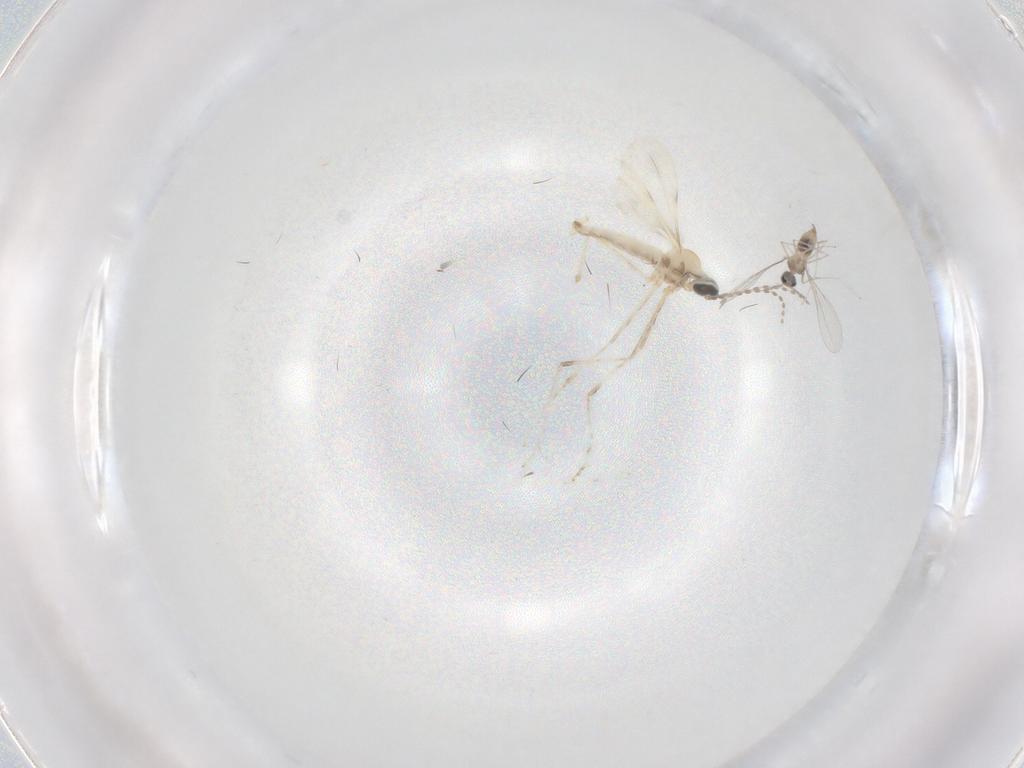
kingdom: Animalia
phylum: Arthropoda
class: Insecta
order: Diptera
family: Cecidomyiidae
